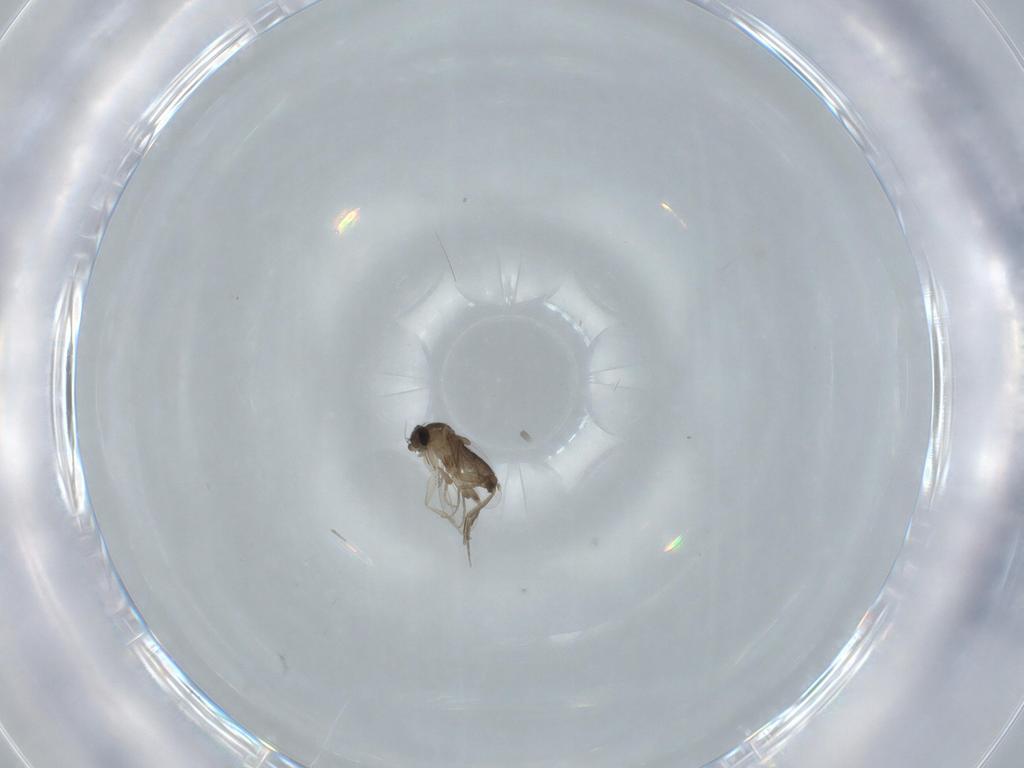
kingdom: Animalia
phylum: Arthropoda
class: Insecta
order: Diptera
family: Phoridae
